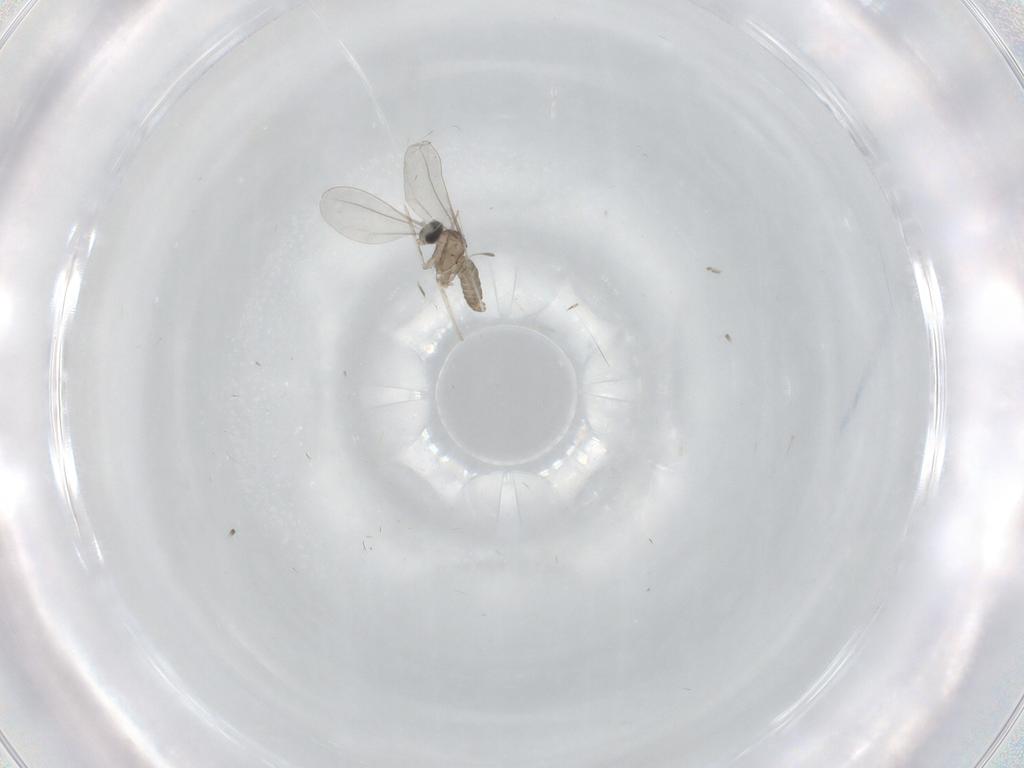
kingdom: Animalia
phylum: Arthropoda
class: Insecta
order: Diptera
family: Cecidomyiidae
